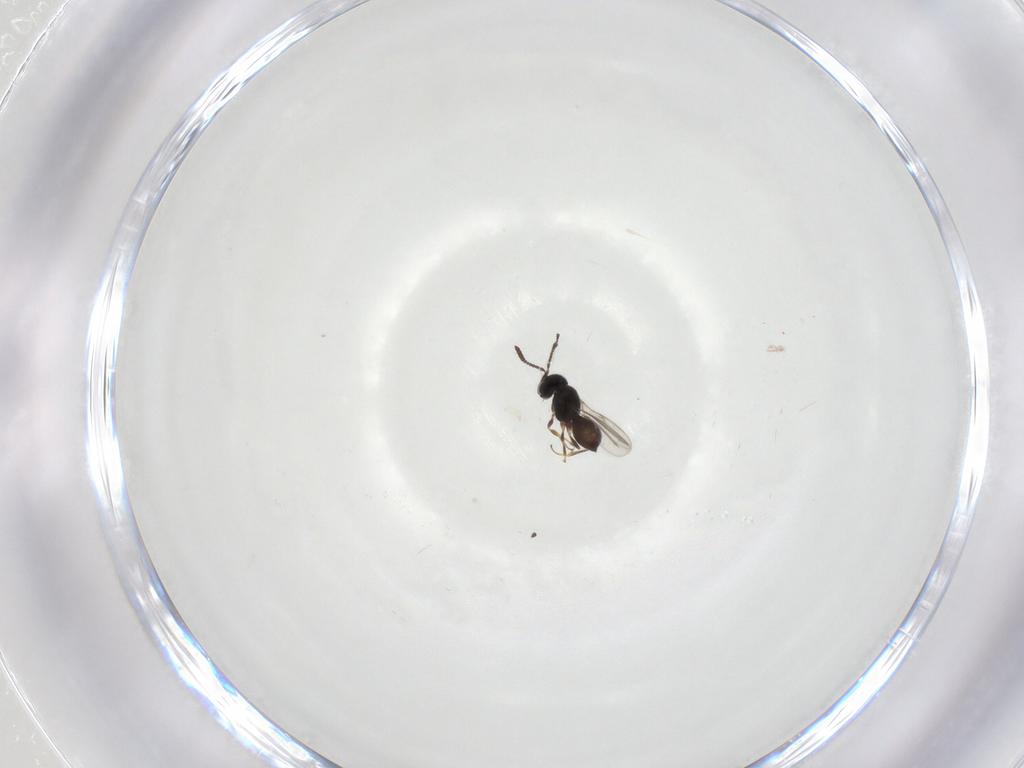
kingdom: Animalia
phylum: Arthropoda
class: Insecta
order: Hymenoptera
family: Scelionidae
